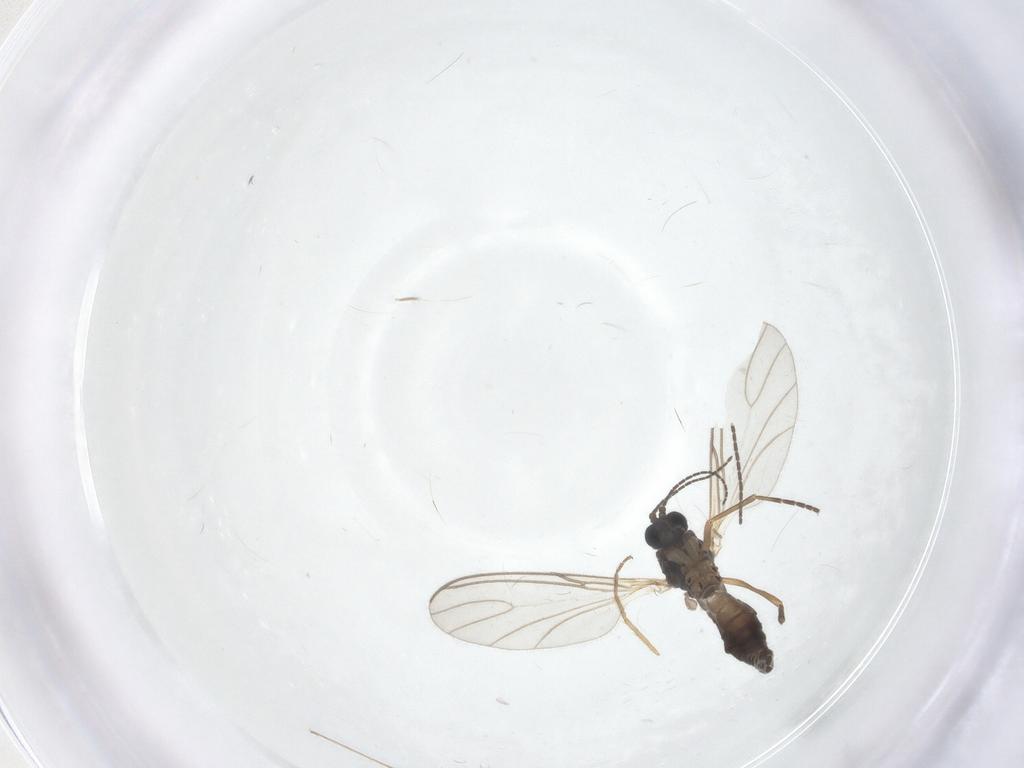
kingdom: Animalia
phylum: Arthropoda
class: Insecta
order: Diptera
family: Sciaridae
